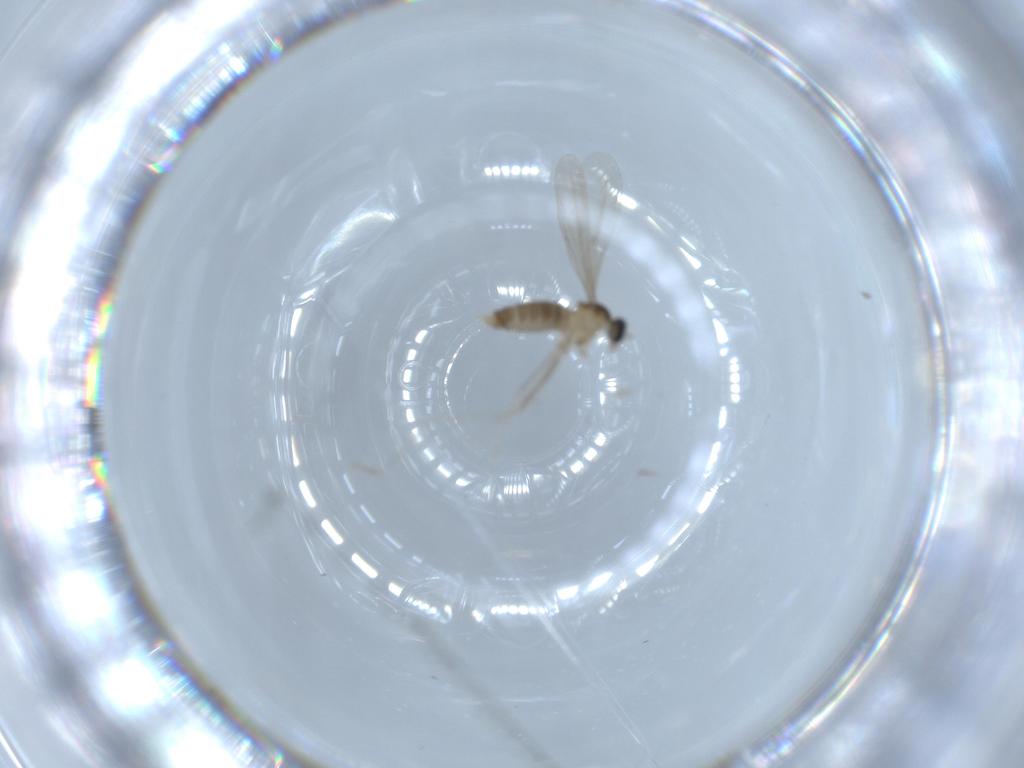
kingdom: Animalia
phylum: Arthropoda
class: Insecta
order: Diptera
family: Cecidomyiidae
